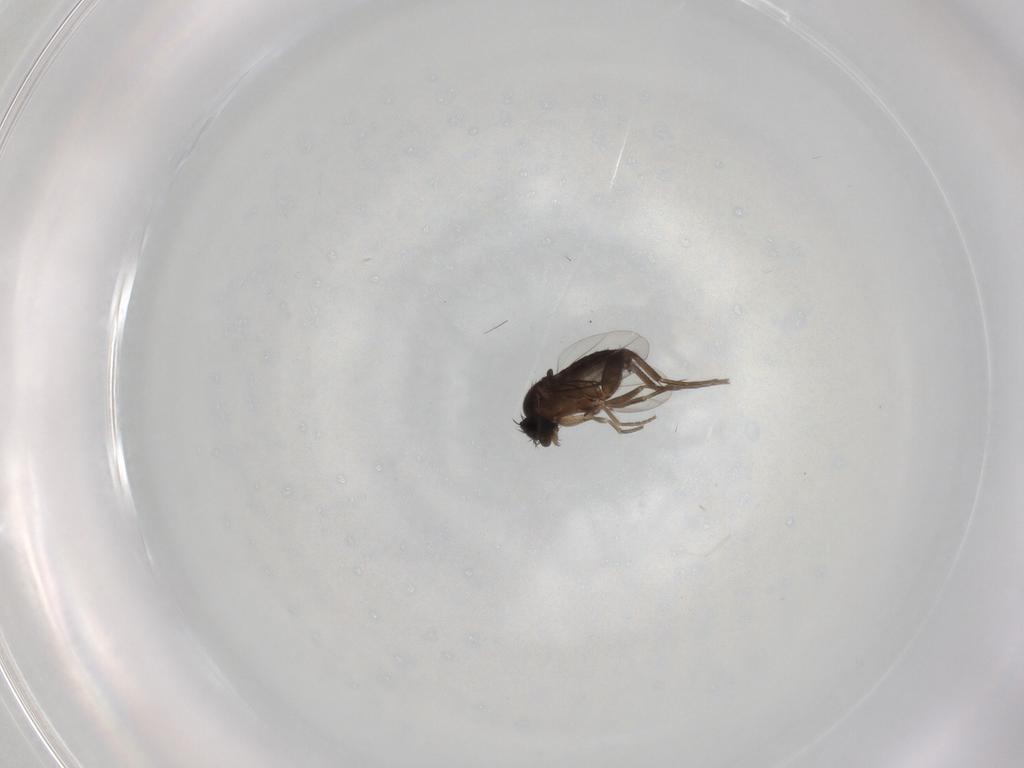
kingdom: Animalia
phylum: Arthropoda
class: Insecta
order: Diptera
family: Phoridae
